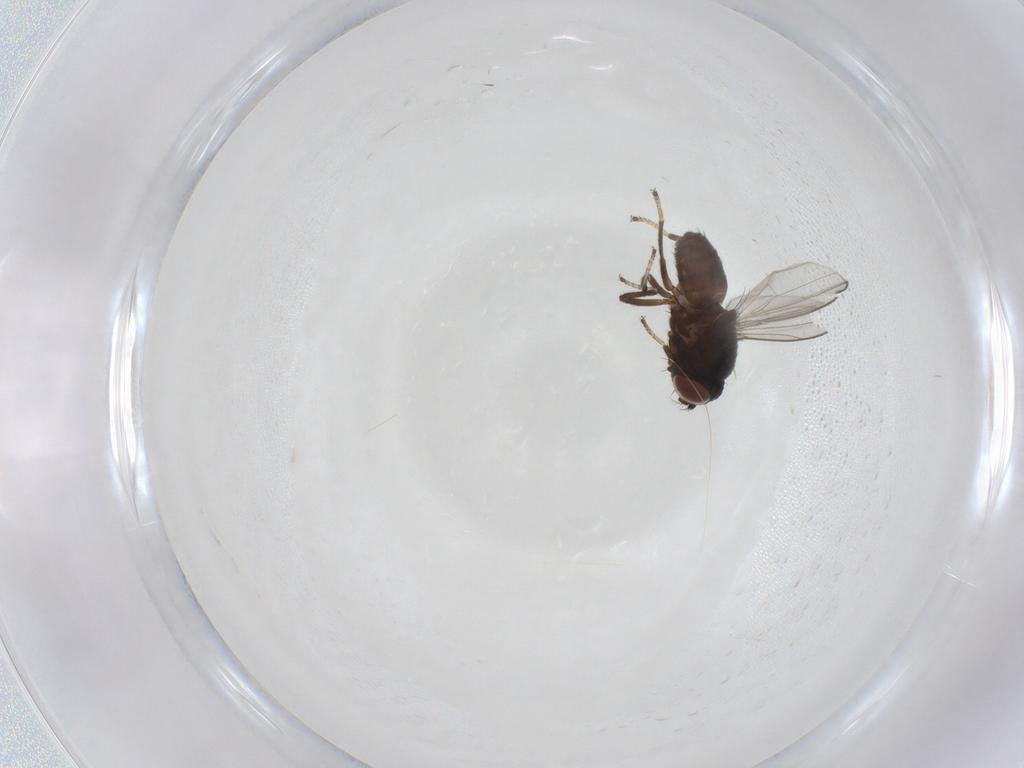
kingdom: Animalia
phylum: Arthropoda
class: Insecta
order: Diptera
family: Ephydridae
